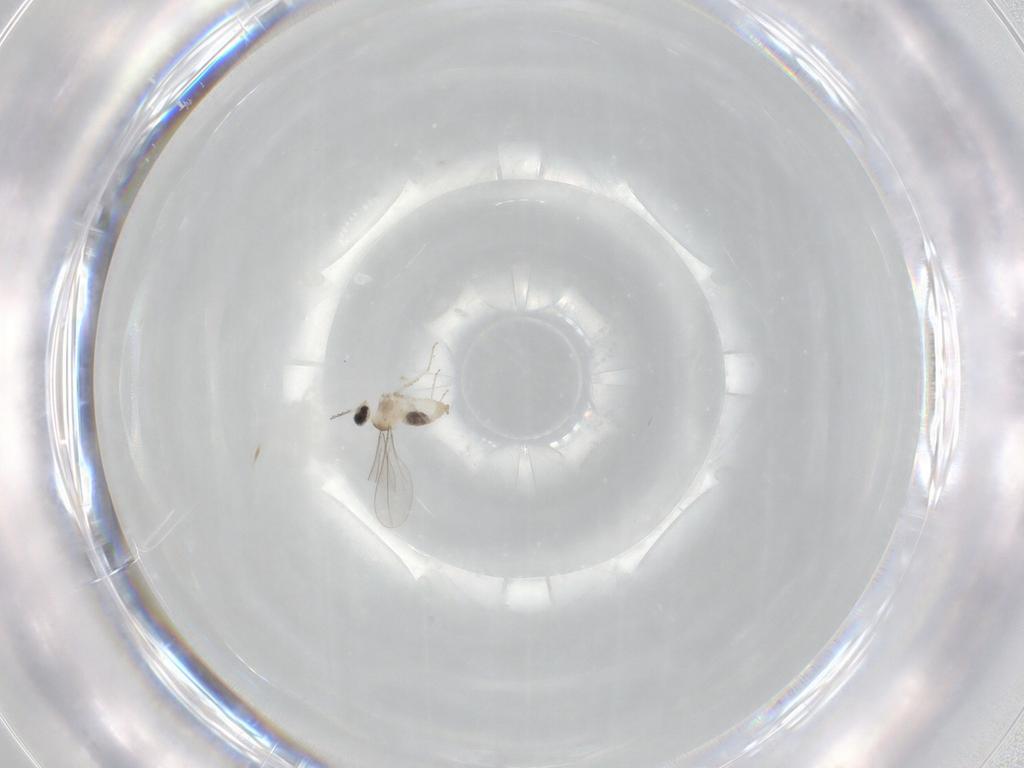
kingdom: Animalia
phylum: Arthropoda
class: Insecta
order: Diptera
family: Cecidomyiidae
